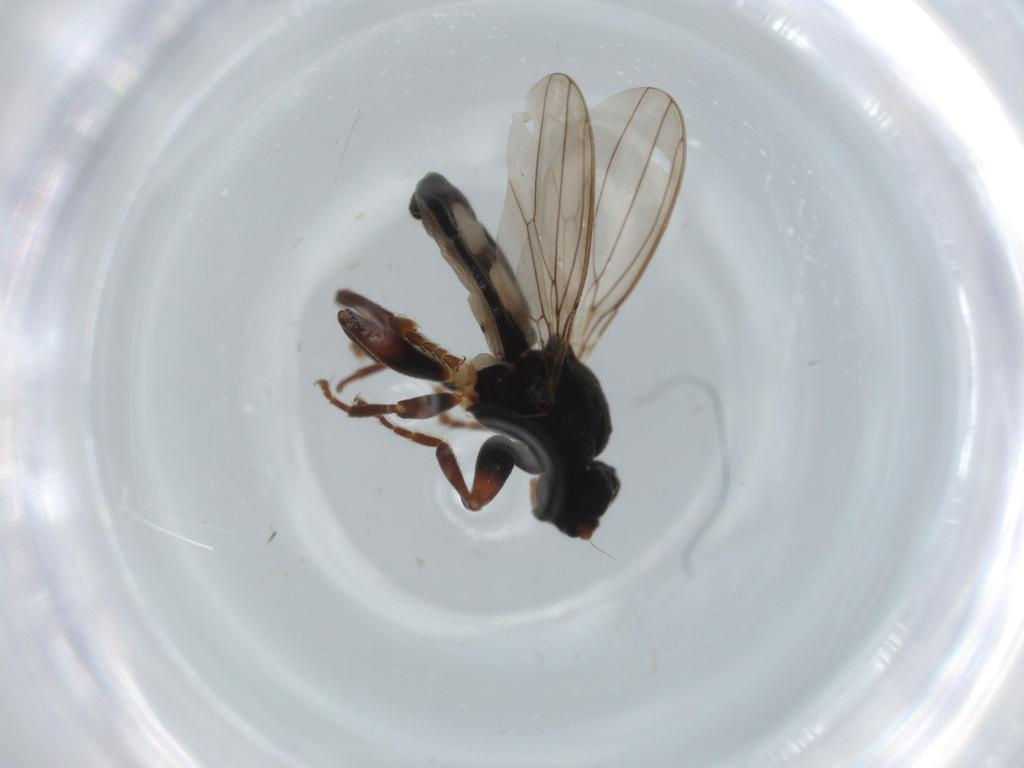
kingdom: Animalia
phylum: Arthropoda
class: Insecta
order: Diptera
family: Sphaeroceridae
